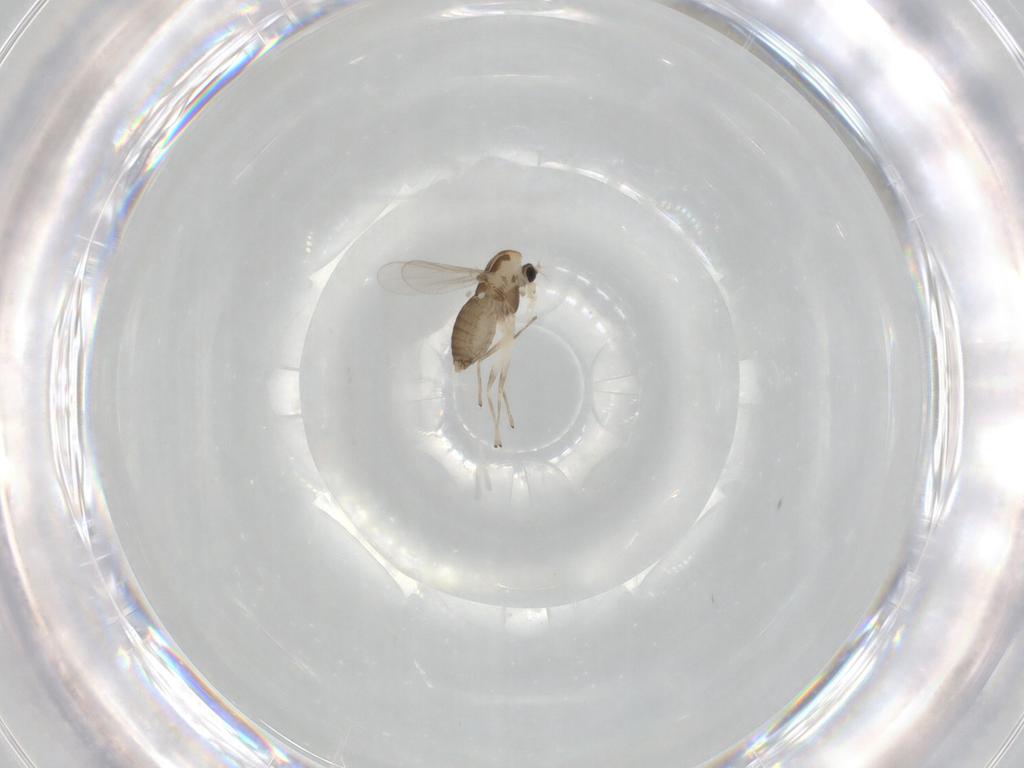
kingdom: Animalia
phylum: Arthropoda
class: Insecta
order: Diptera
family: Chironomidae
